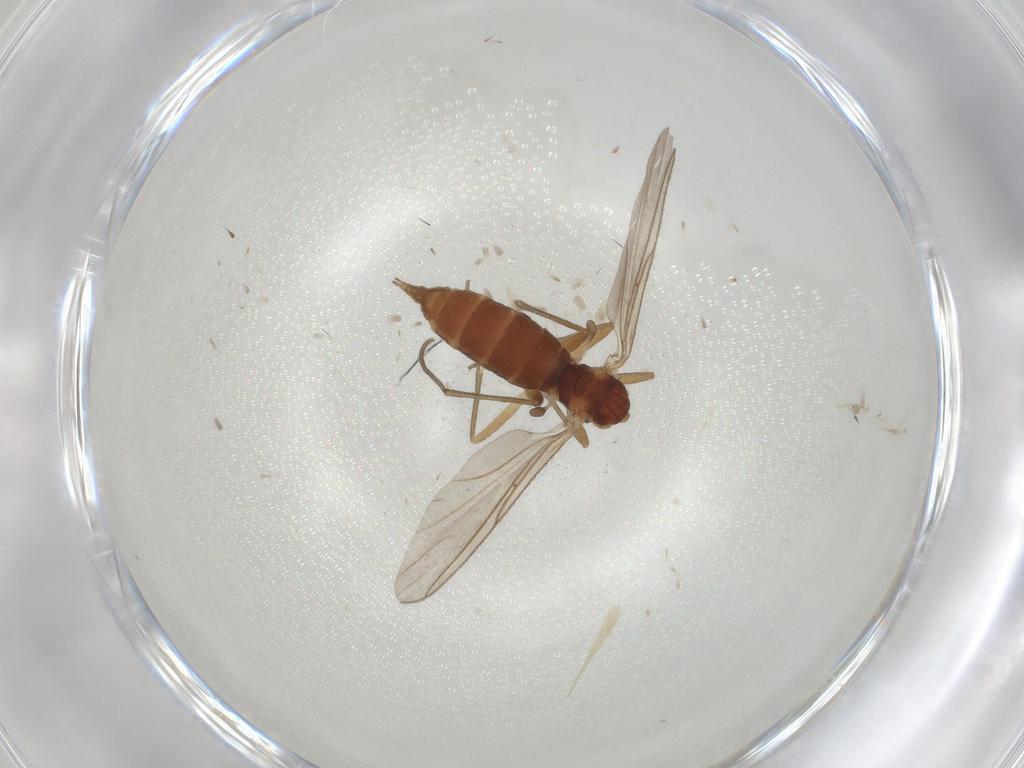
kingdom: Animalia
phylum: Arthropoda
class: Insecta
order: Diptera
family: Sciaridae
